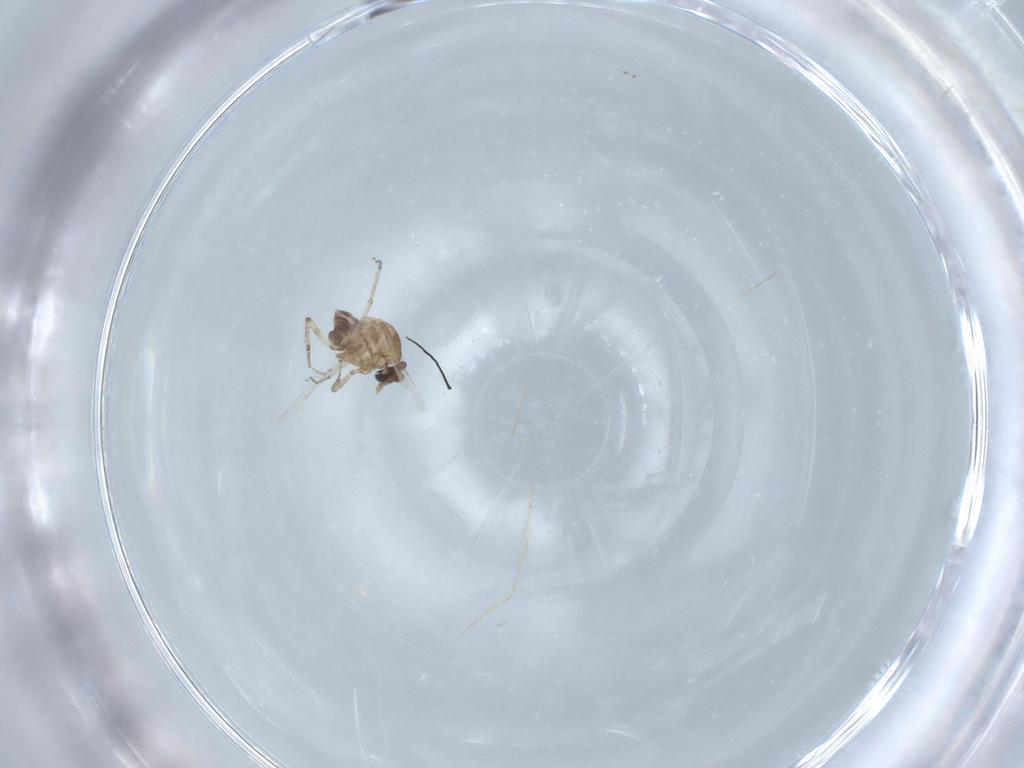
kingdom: Animalia
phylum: Arthropoda
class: Insecta
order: Diptera
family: Ceratopogonidae
